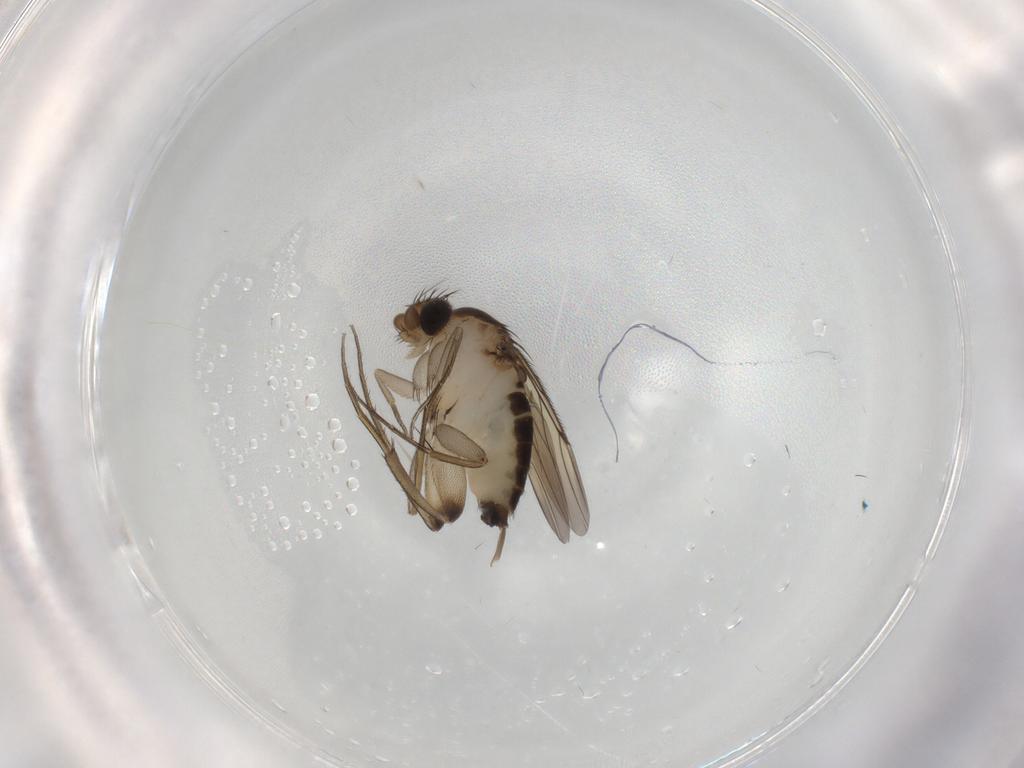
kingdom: Animalia
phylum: Arthropoda
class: Insecta
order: Diptera
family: Phoridae
